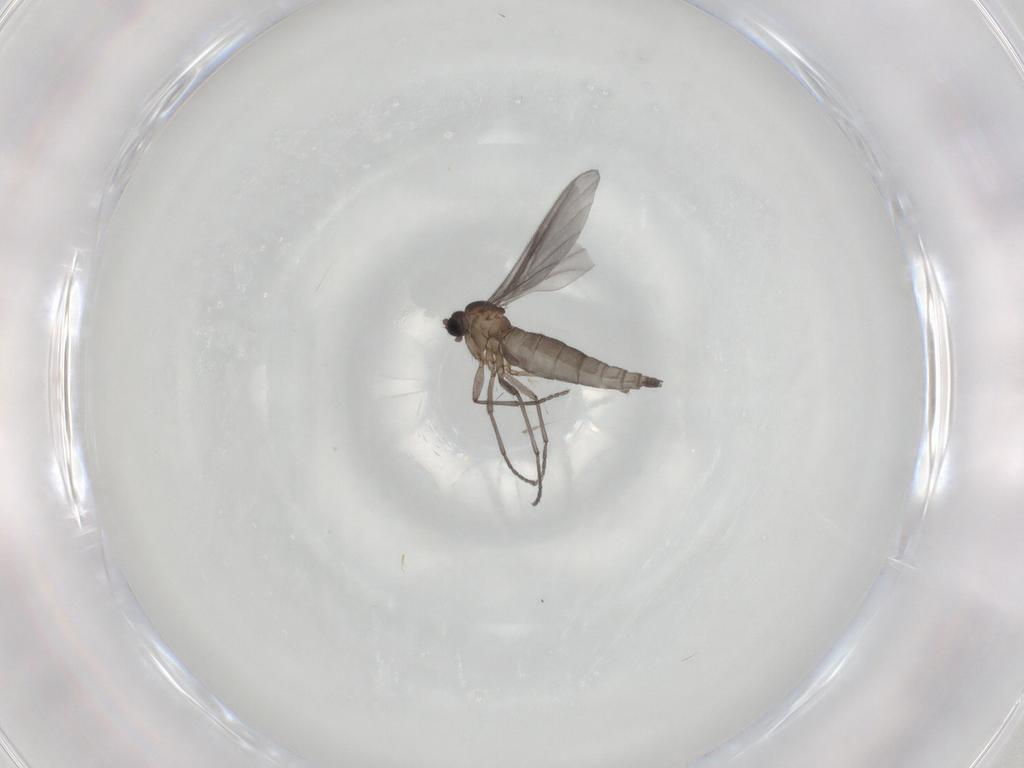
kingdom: Animalia
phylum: Arthropoda
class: Insecta
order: Diptera
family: Sciaridae
